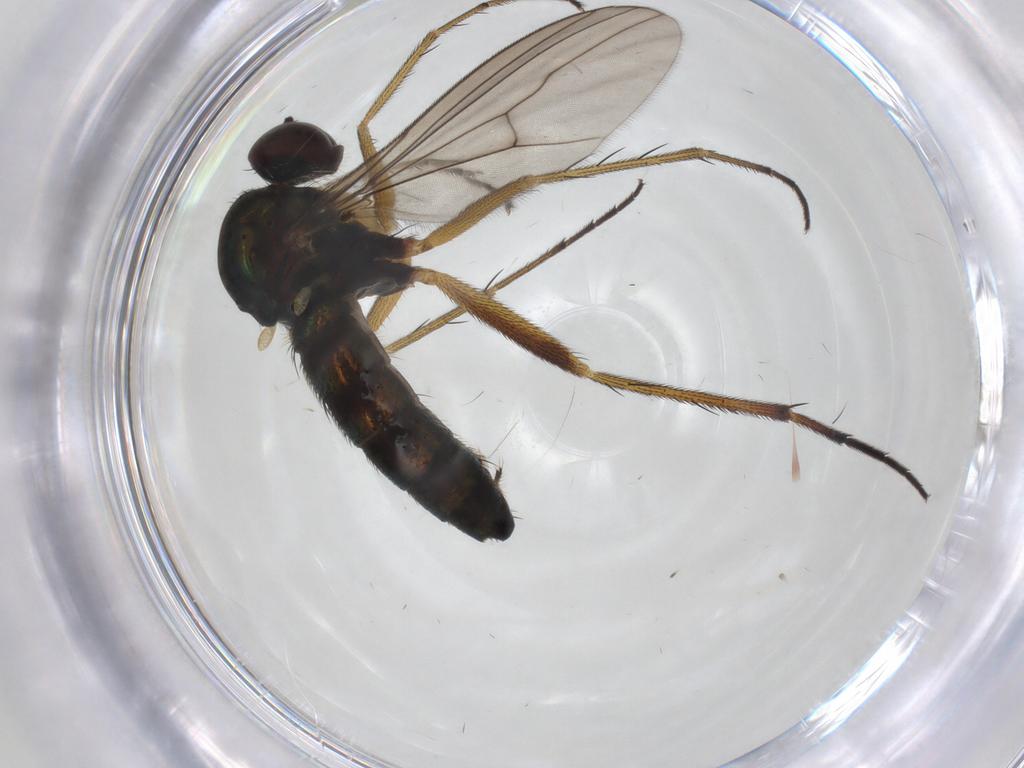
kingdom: Animalia
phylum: Arthropoda
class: Insecta
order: Diptera
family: Dolichopodidae
